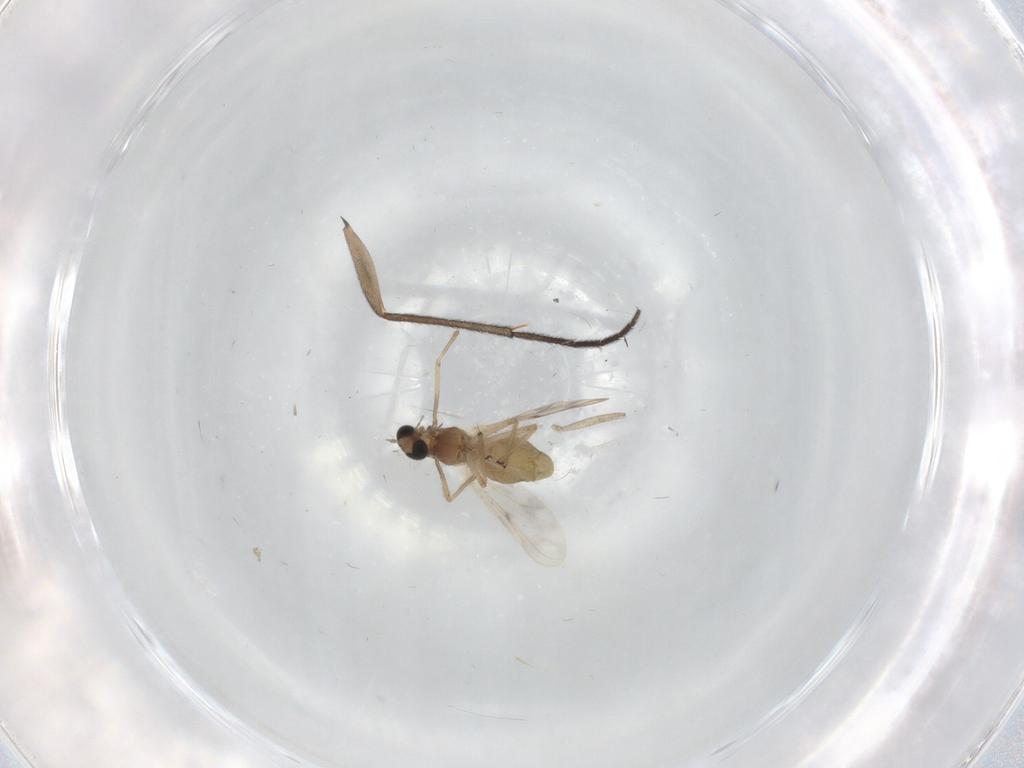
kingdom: Animalia
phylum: Arthropoda
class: Insecta
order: Diptera
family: Chironomidae
